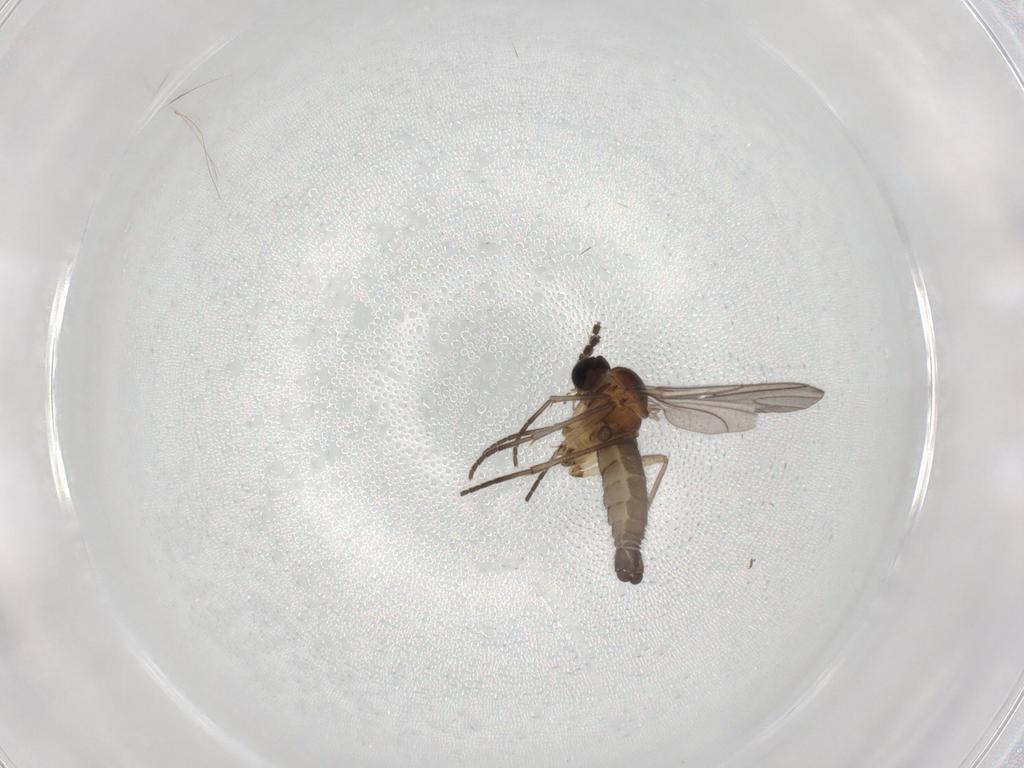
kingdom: Animalia
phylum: Arthropoda
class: Insecta
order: Diptera
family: Sciaridae
